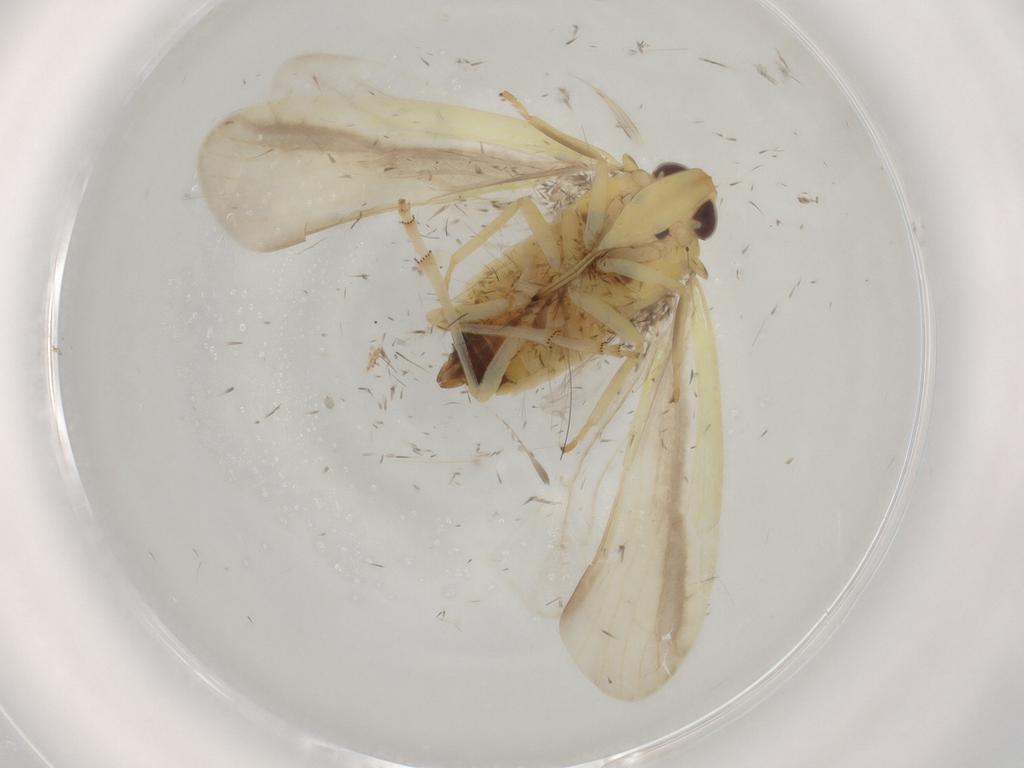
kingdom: Animalia
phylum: Arthropoda
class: Insecta
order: Hemiptera
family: Achilidae
